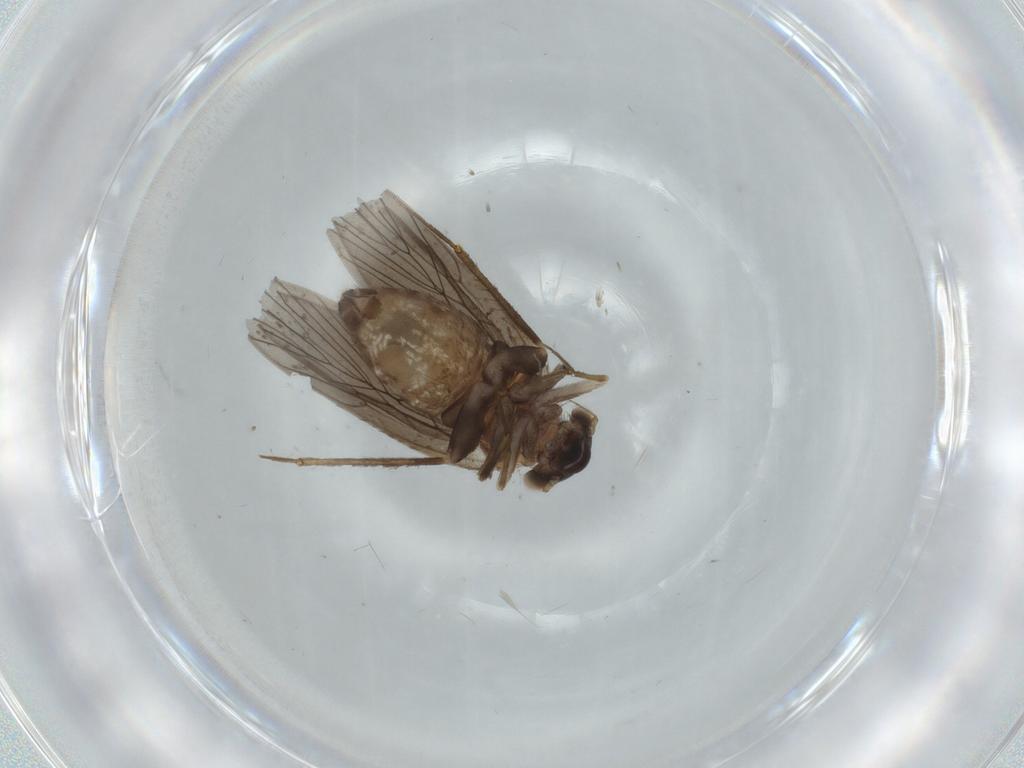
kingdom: Animalia
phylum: Arthropoda
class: Insecta
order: Psocodea
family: Lepidopsocidae
